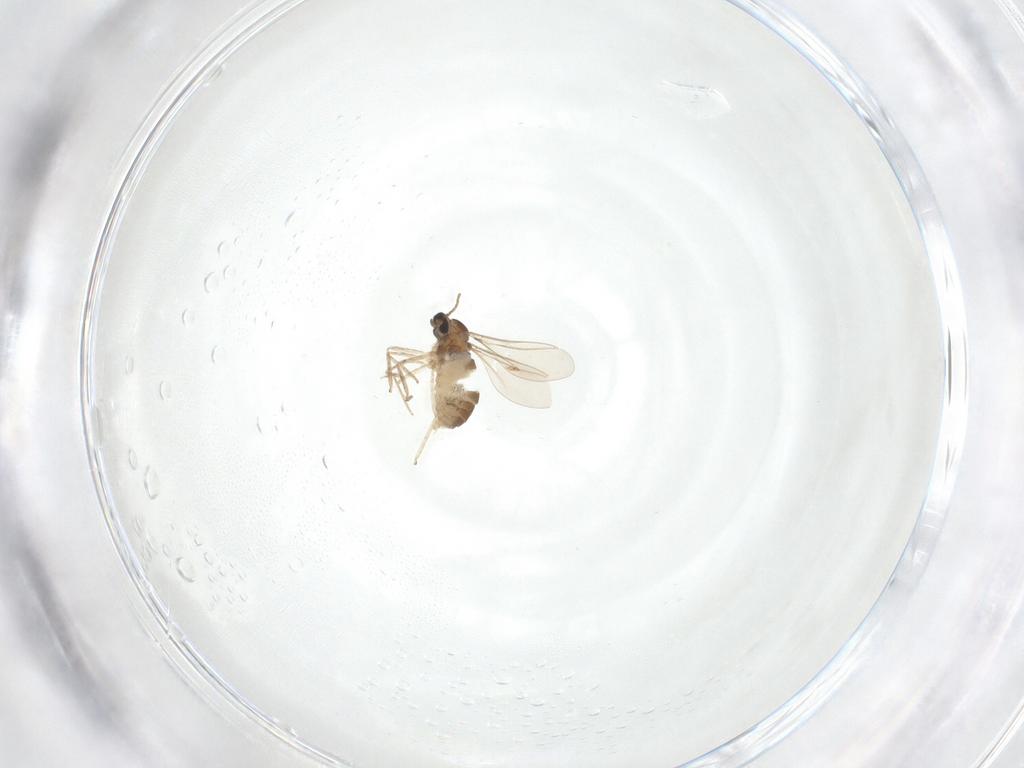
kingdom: Animalia
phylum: Arthropoda
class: Insecta
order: Diptera
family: Cecidomyiidae
